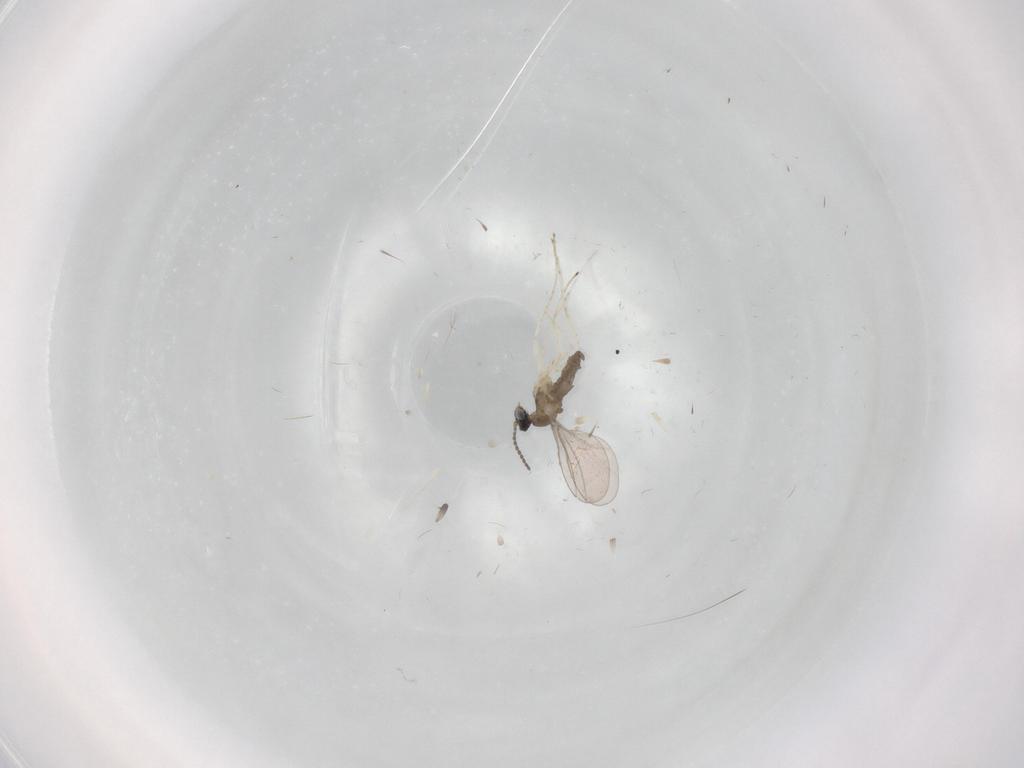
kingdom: Animalia
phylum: Arthropoda
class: Insecta
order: Diptera
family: Cecidomyiidae
